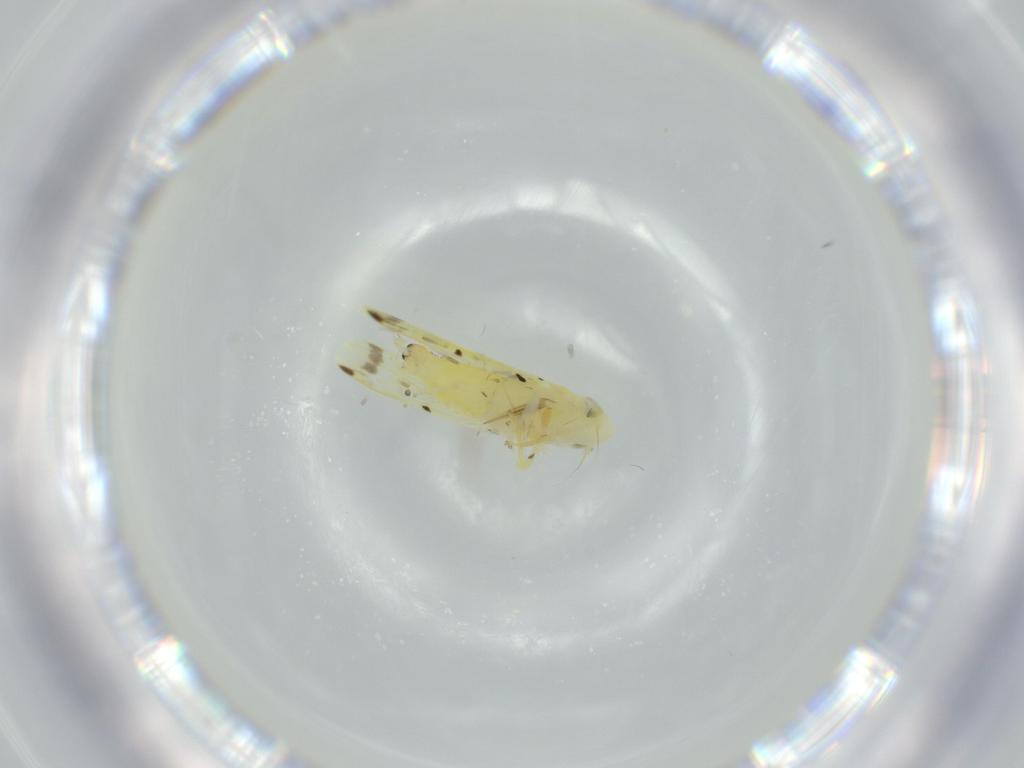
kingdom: Animalia
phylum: Arthropoda
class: Insecta
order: Hemiptera
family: Cicadellidae
